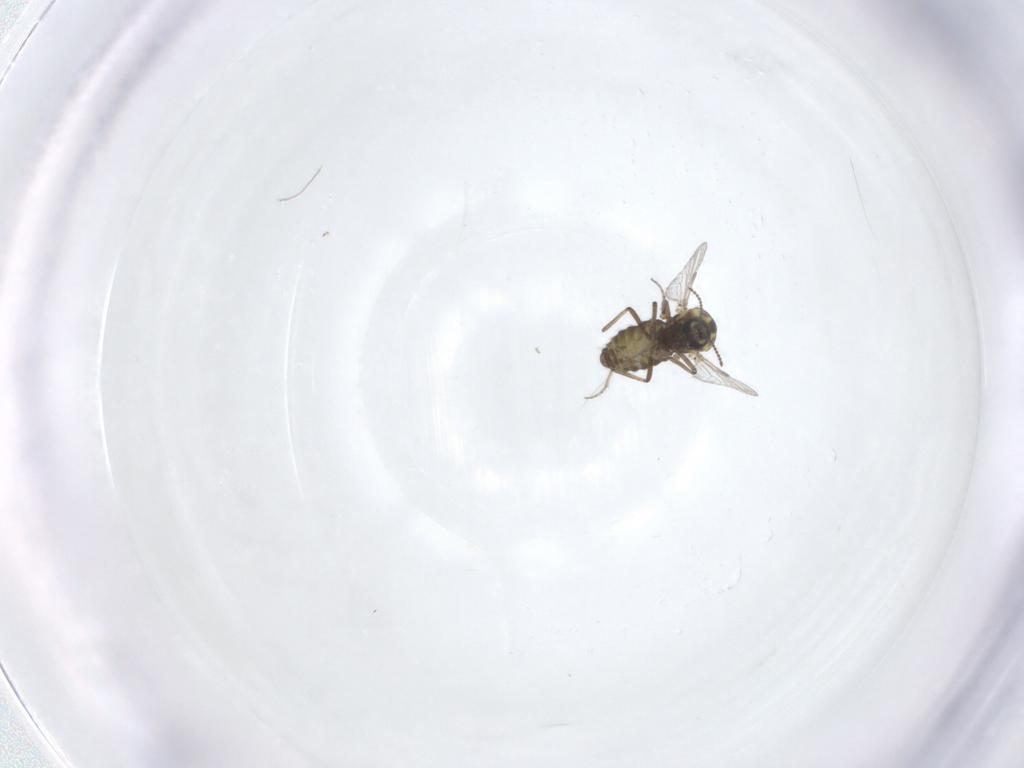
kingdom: Animalia
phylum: Arthropoda
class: Insecta
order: Diptera
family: Ceratopogonidae
